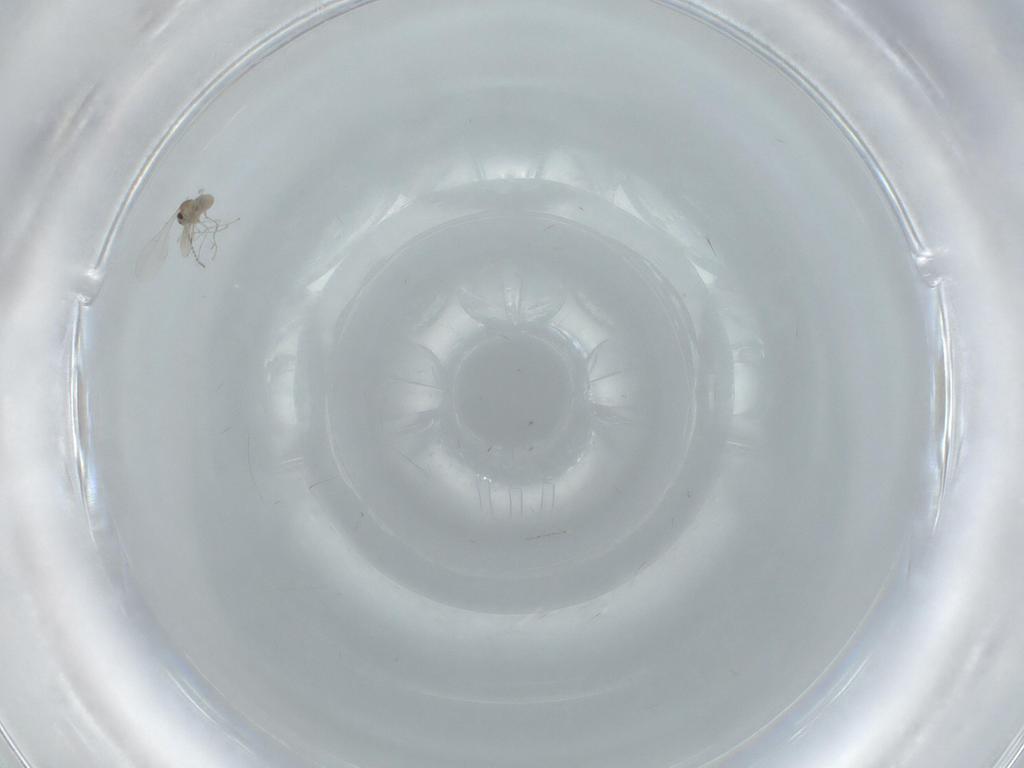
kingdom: Animalia
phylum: Arthropoda
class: Insecta
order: Diptera
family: Cecidomyiidae
